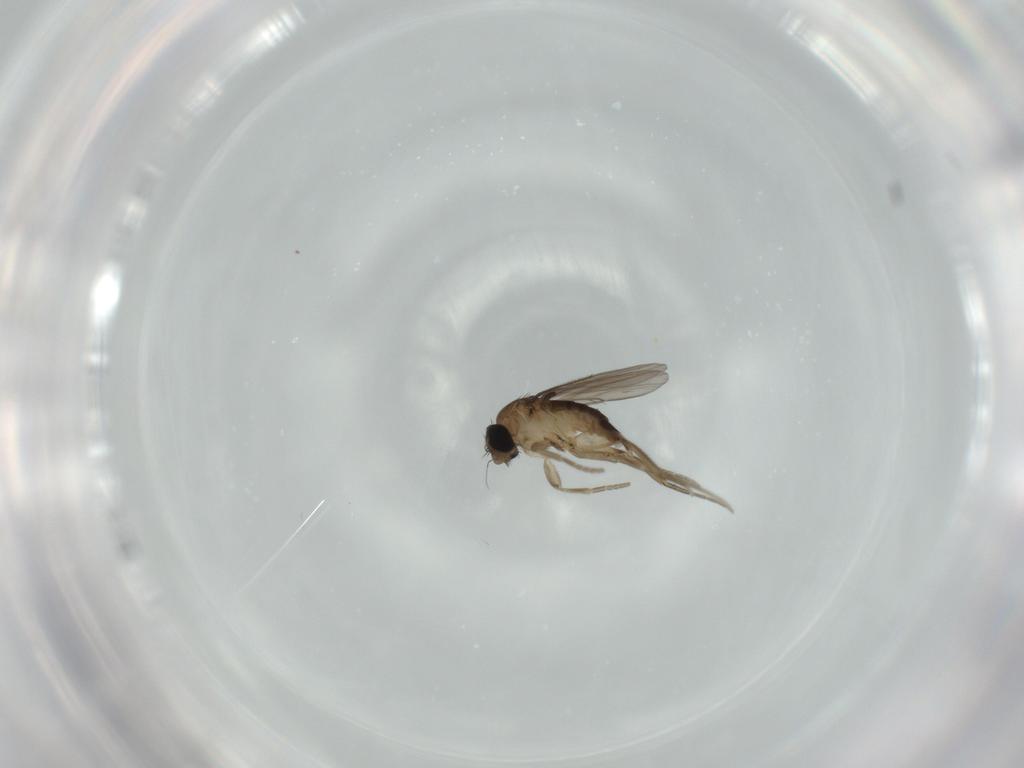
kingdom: Animalia
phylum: Arthropoda
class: Insecta
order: Diptera
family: Phoridae
